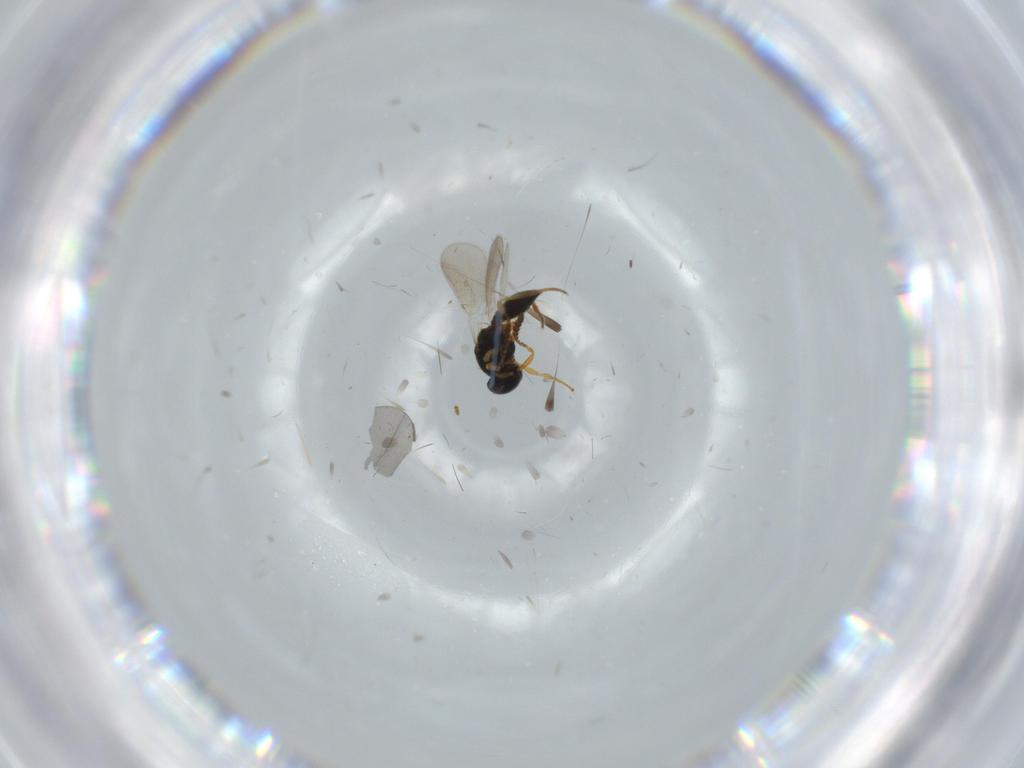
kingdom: Animalia
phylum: Arthropoda
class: Insecta
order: Hymenoptera
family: Platygastridae
